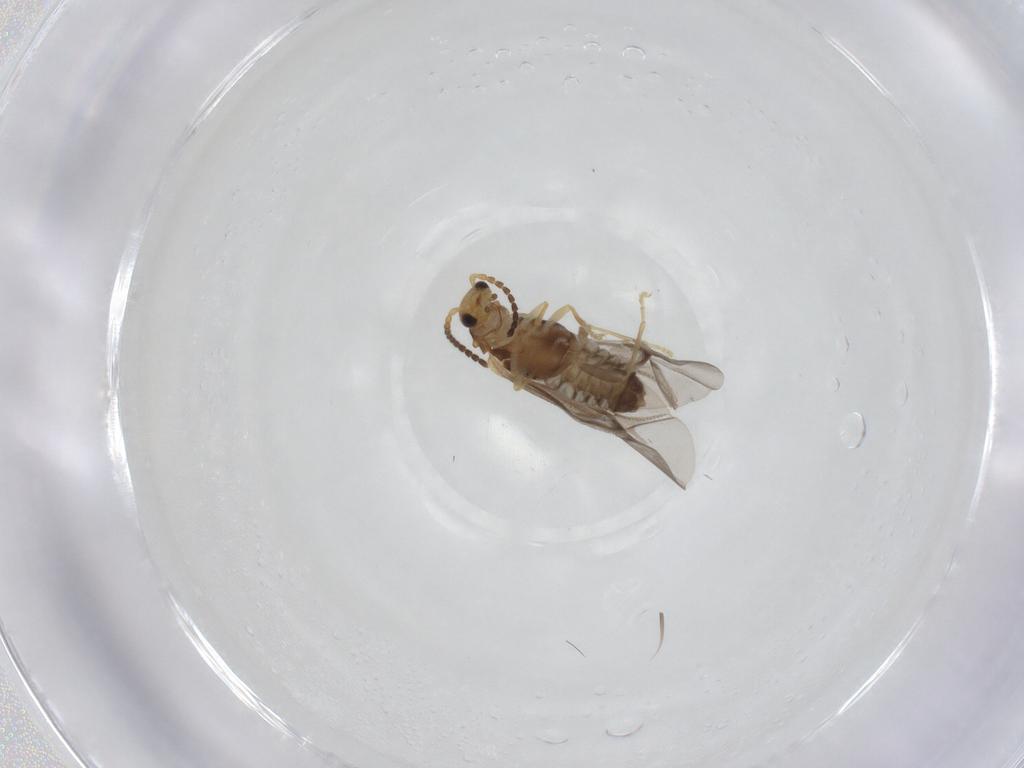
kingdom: Animalia
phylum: Arthropoda
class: Insecta
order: Coleoptera
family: Cantharidae
